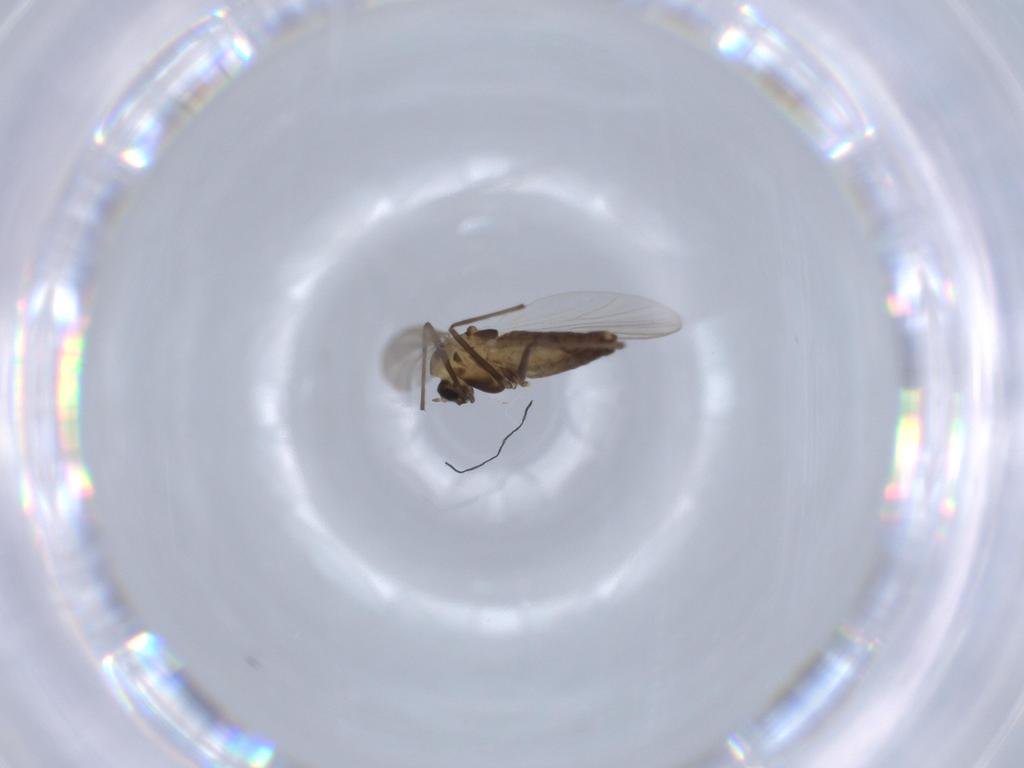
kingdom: Animalia
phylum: Arthropoda
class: Insecta
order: Diptera
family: Chironomidae
